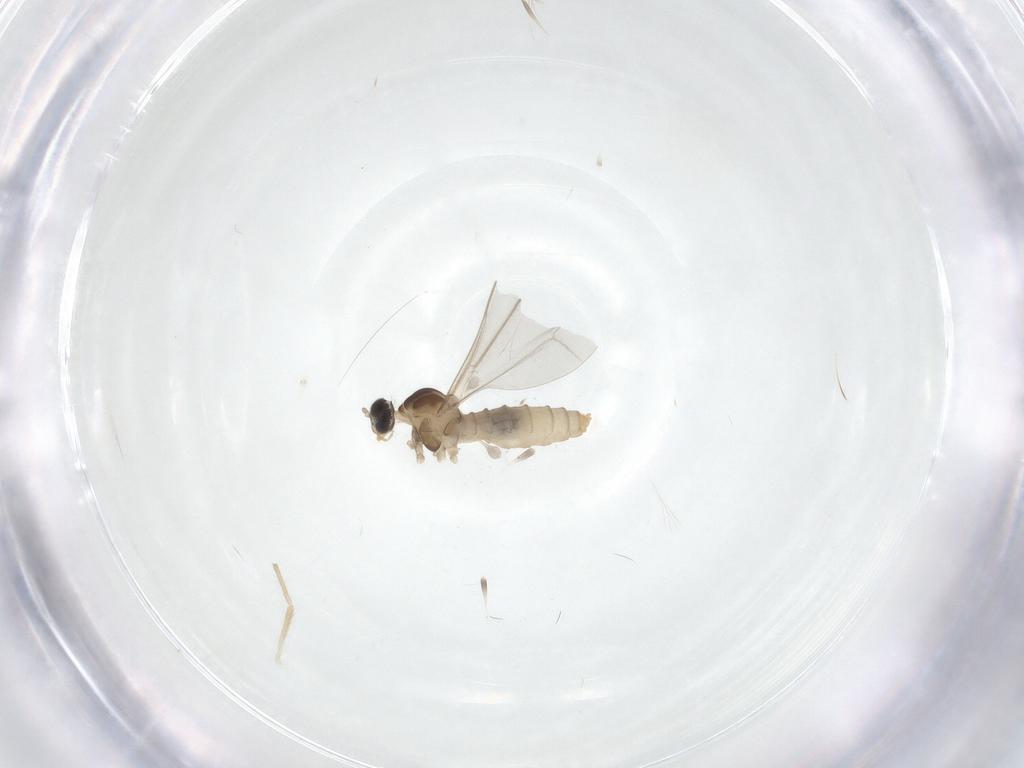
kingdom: Animalia
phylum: Arthropoda
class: Insecta
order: Diptera
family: Cecidomyiidae
